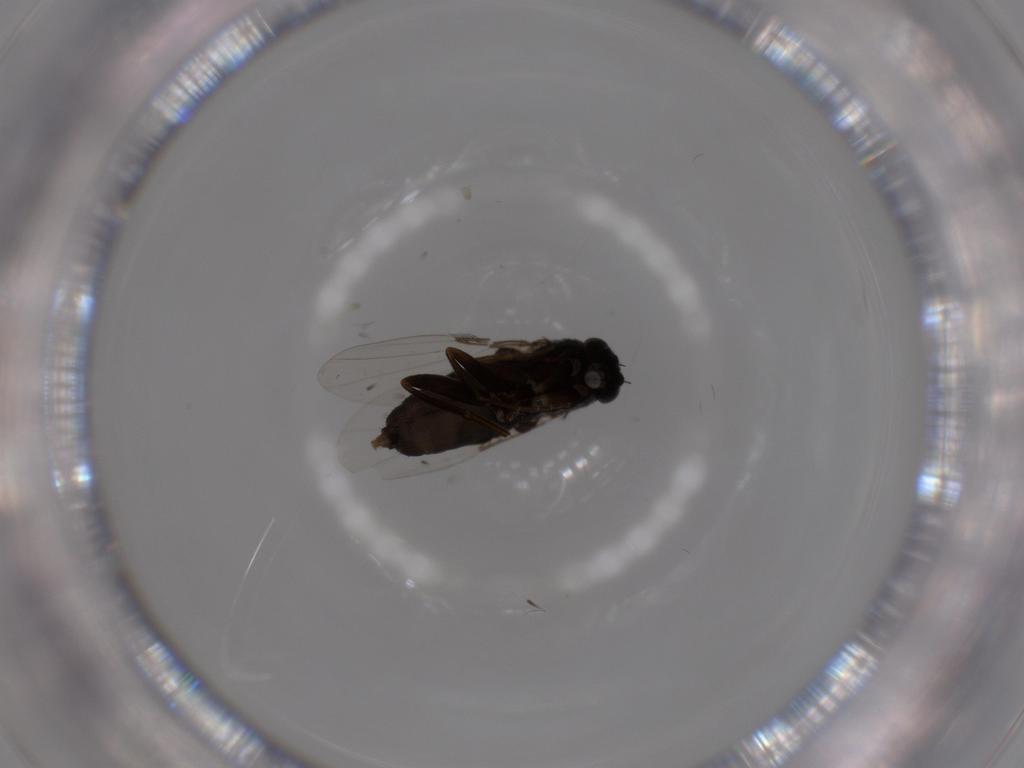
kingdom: Animalia
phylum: Arthropoda
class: Insecta
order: Diptera
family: Phoridae
